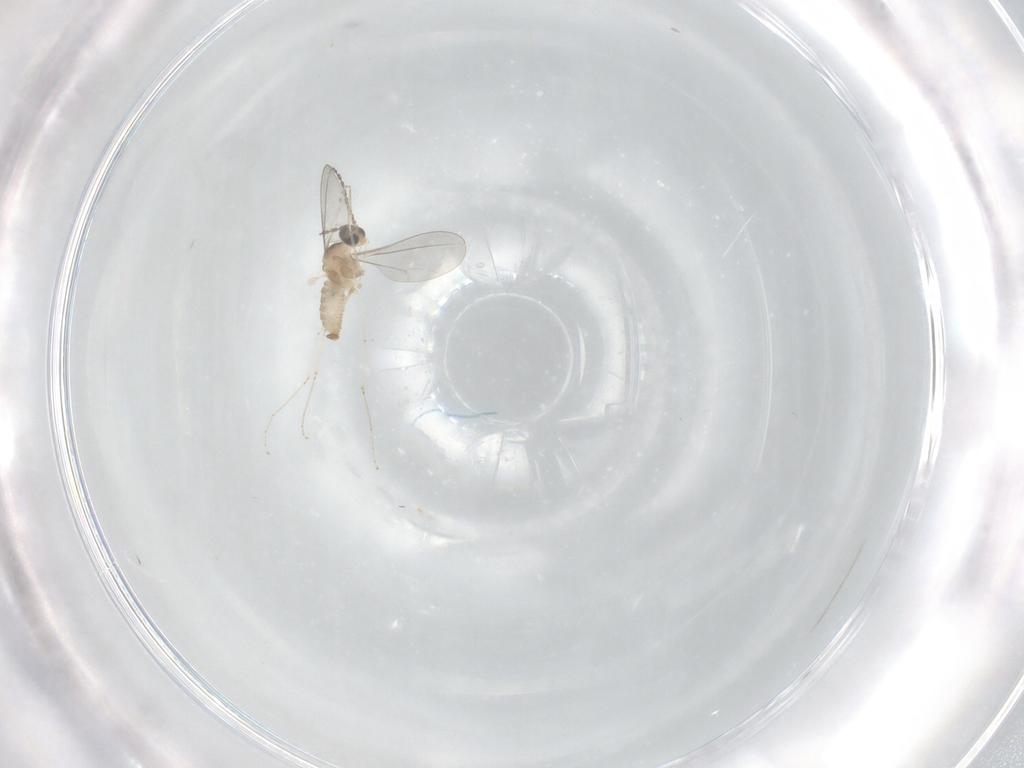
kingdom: Animalia
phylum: Arthropoda
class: Insecta
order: Diptera
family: Cecidomyiidae
